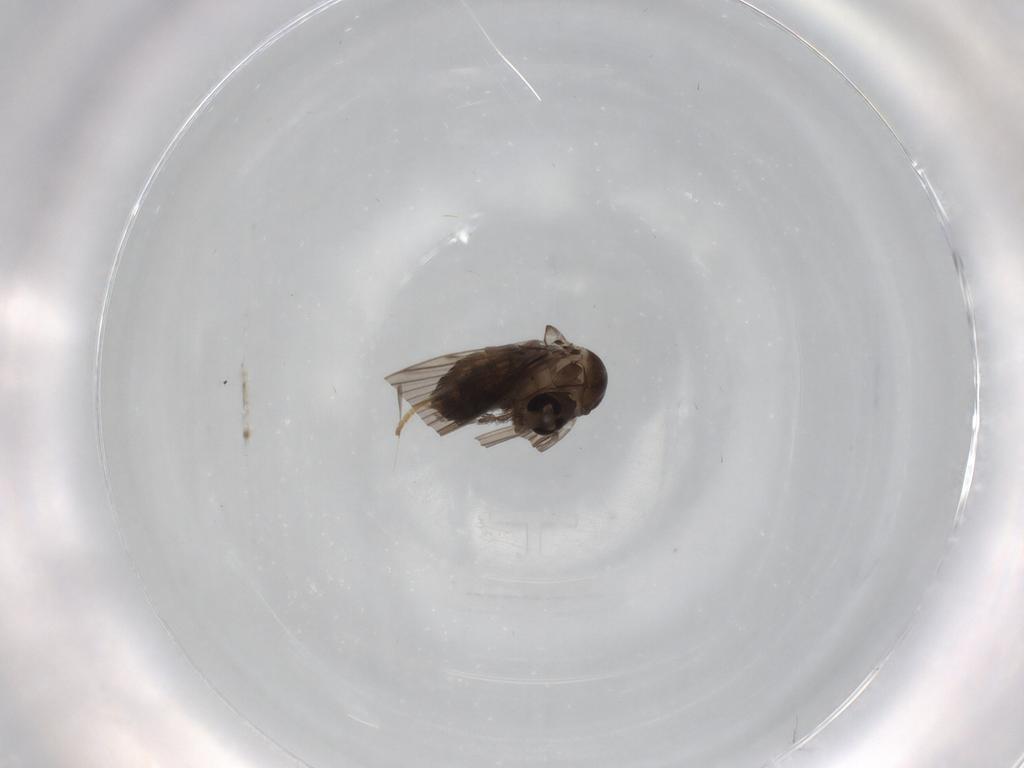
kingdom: Animalia
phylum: Arthropoda
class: Insecta
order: Diptera
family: Psychodidae
